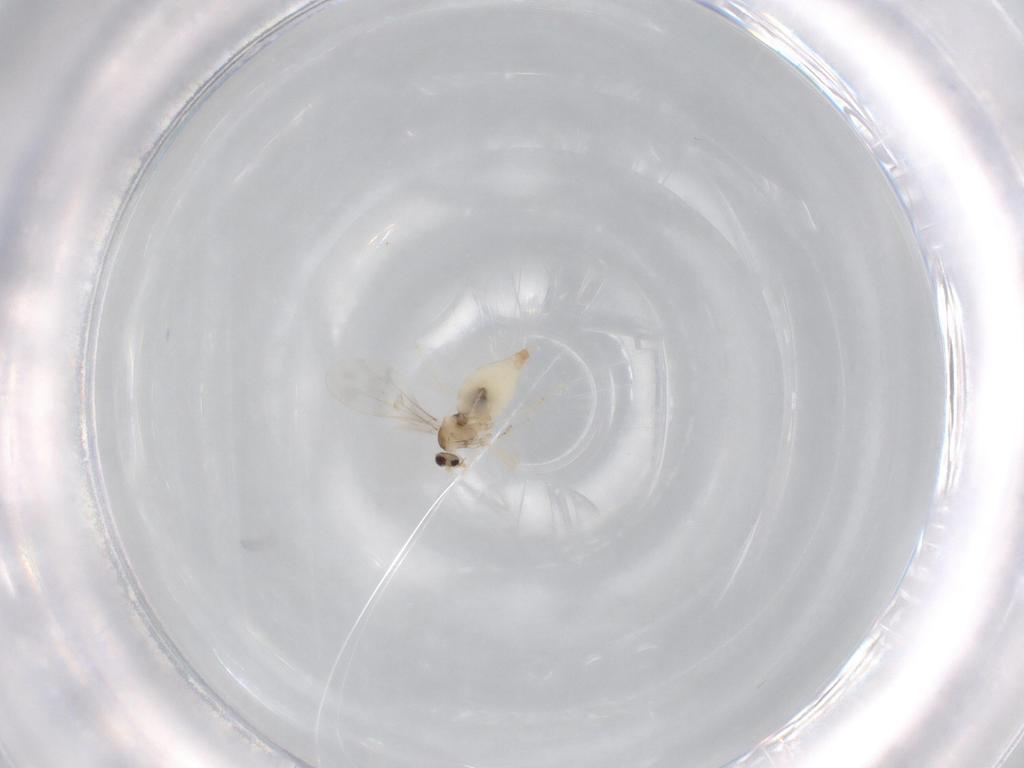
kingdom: Animalia
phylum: Arthropoda
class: Insecta
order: Diptera
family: Cecidomyiidae
